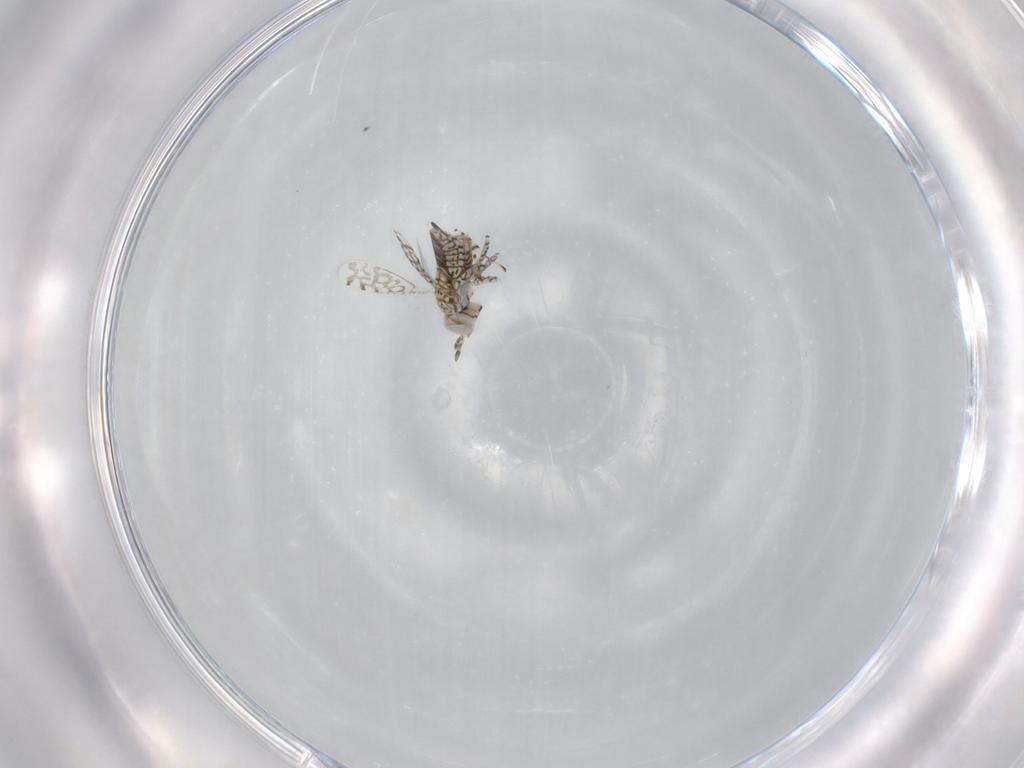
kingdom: Animalia
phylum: Arthropoda
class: Insecta
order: Hymenoptera
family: Aphelinidae
